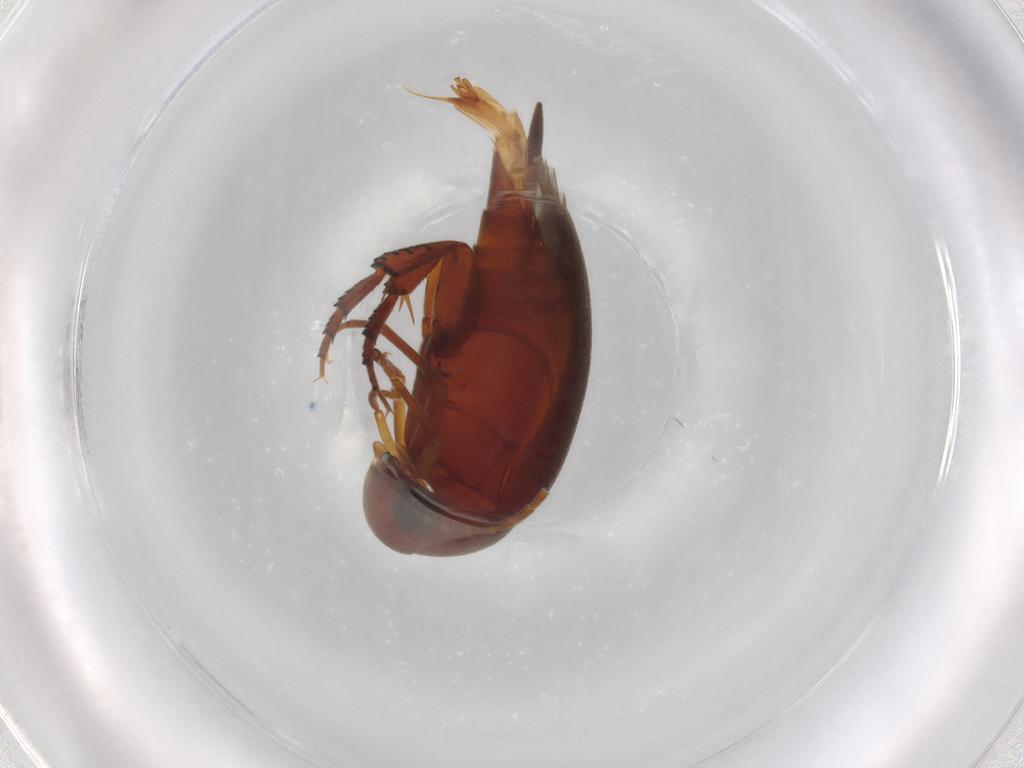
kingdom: Animalia
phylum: Arthropoda
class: Insecta
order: Coleoptera
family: Mordellidae
